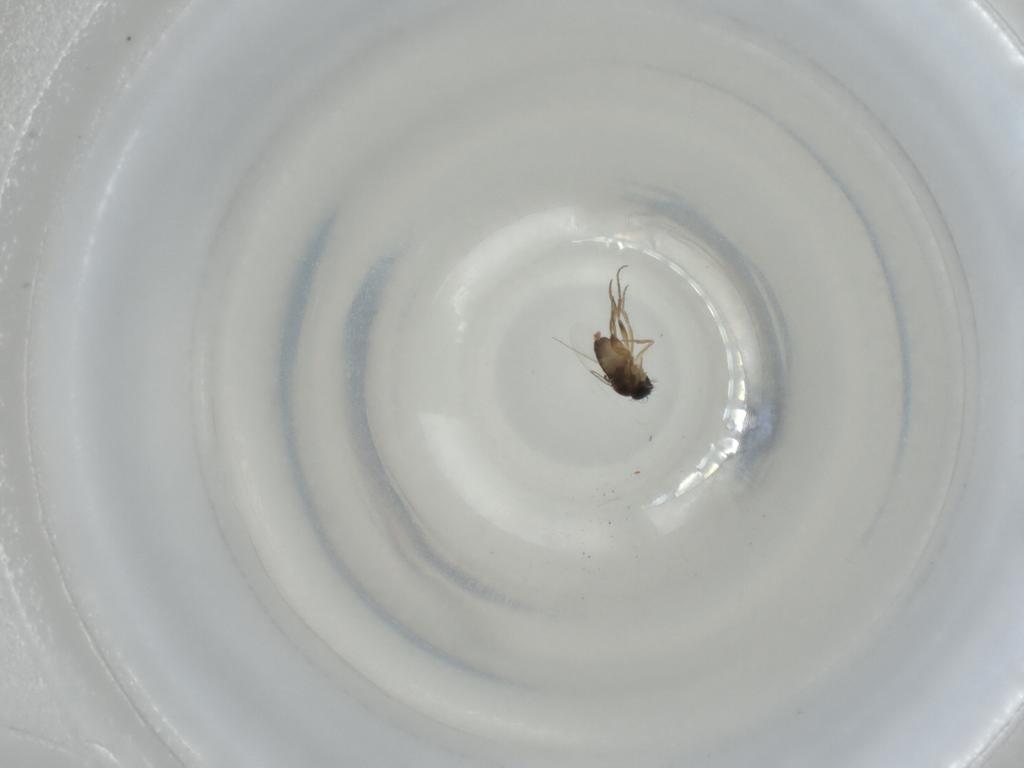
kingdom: Animalia
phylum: Arthropoda
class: Insecta
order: Diptera
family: Phoridae
